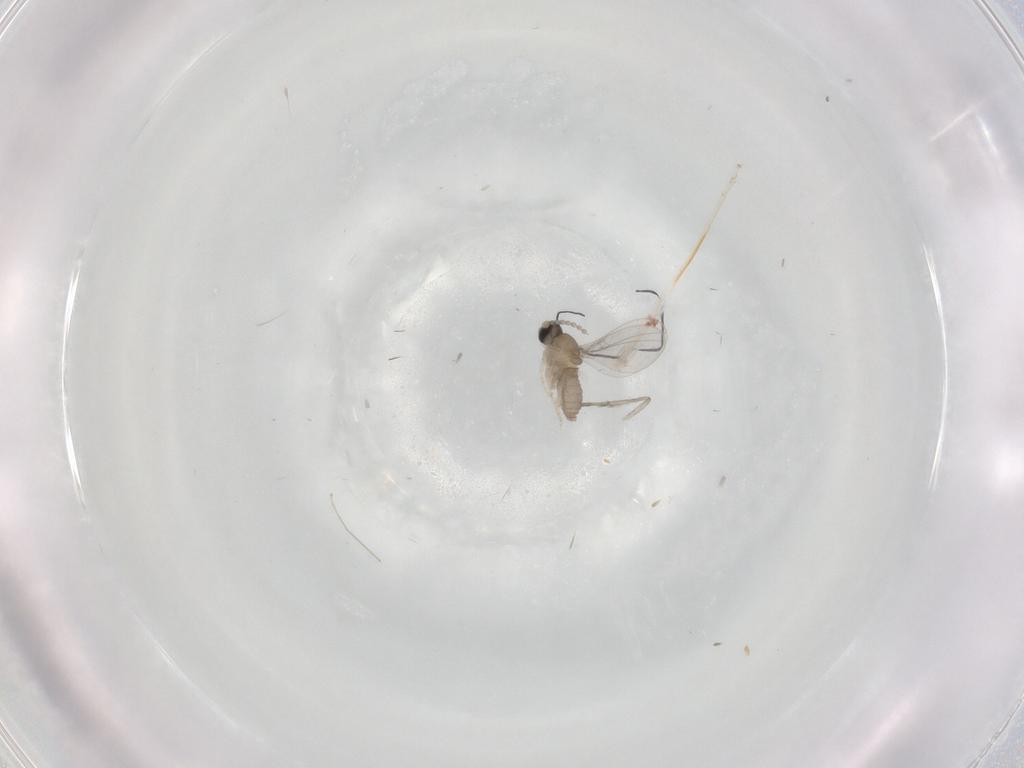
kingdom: Animalia
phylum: Arthropoda
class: Insecta
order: Diptera
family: Cecidomyiidae
